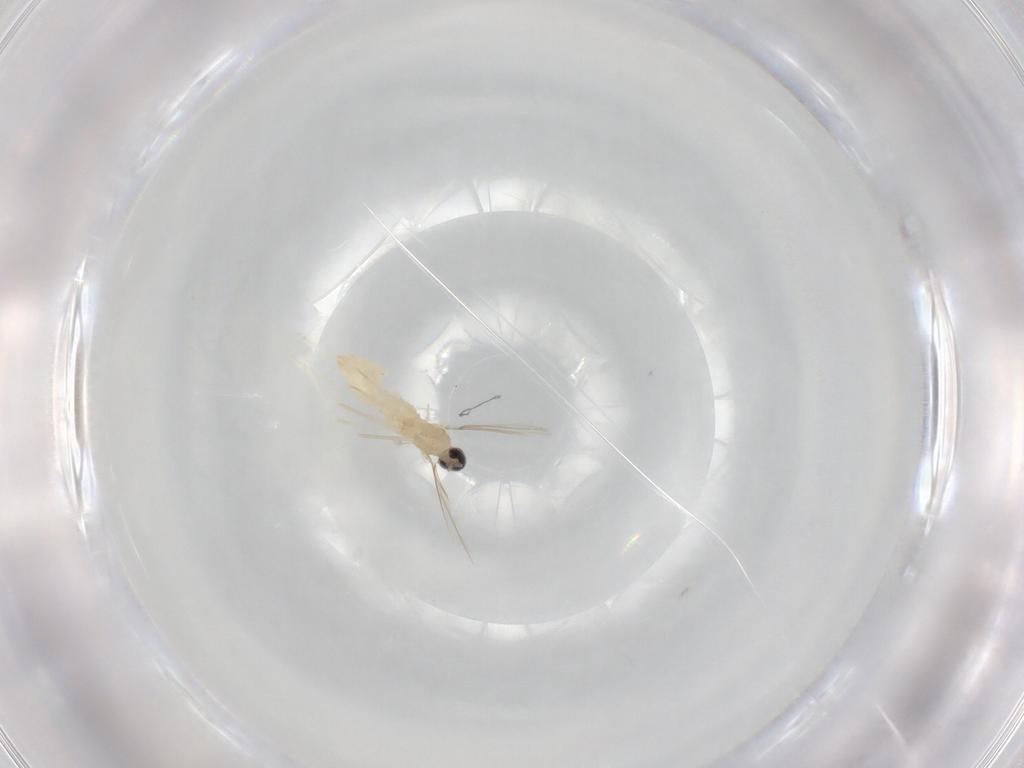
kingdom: Animalia
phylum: Arthropoda
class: Insecta
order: Diptera
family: Cecidomyiidae
